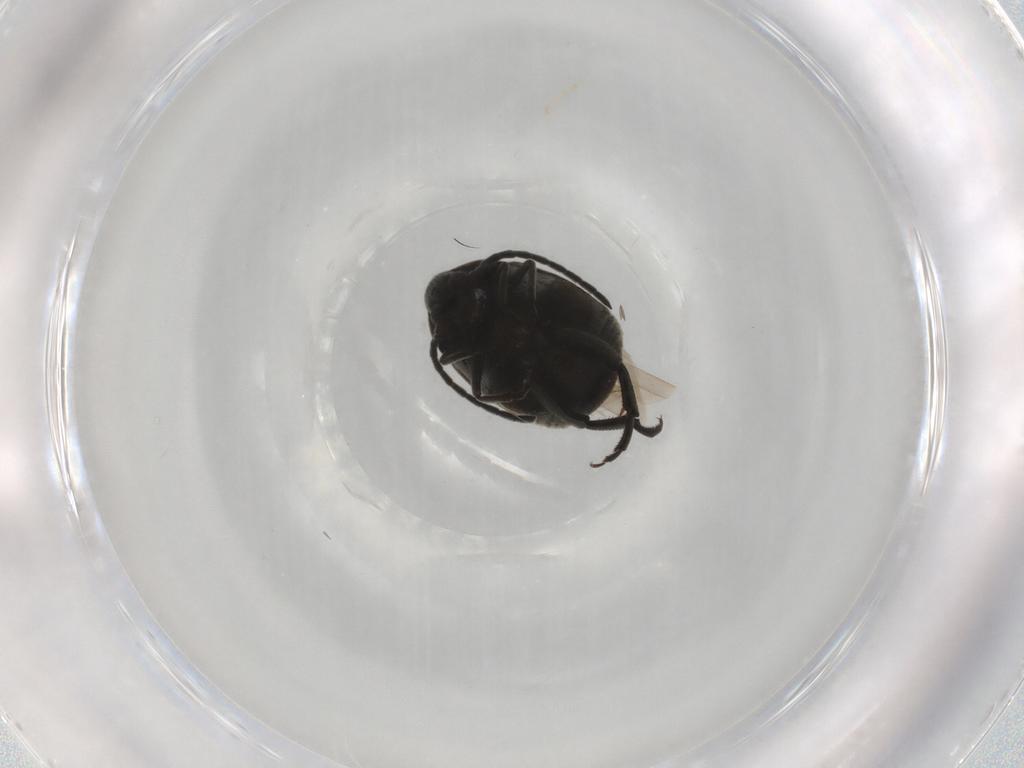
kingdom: Animalia
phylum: Arthropoda
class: Insecta
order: Coleoptera
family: Chrysomelidae
